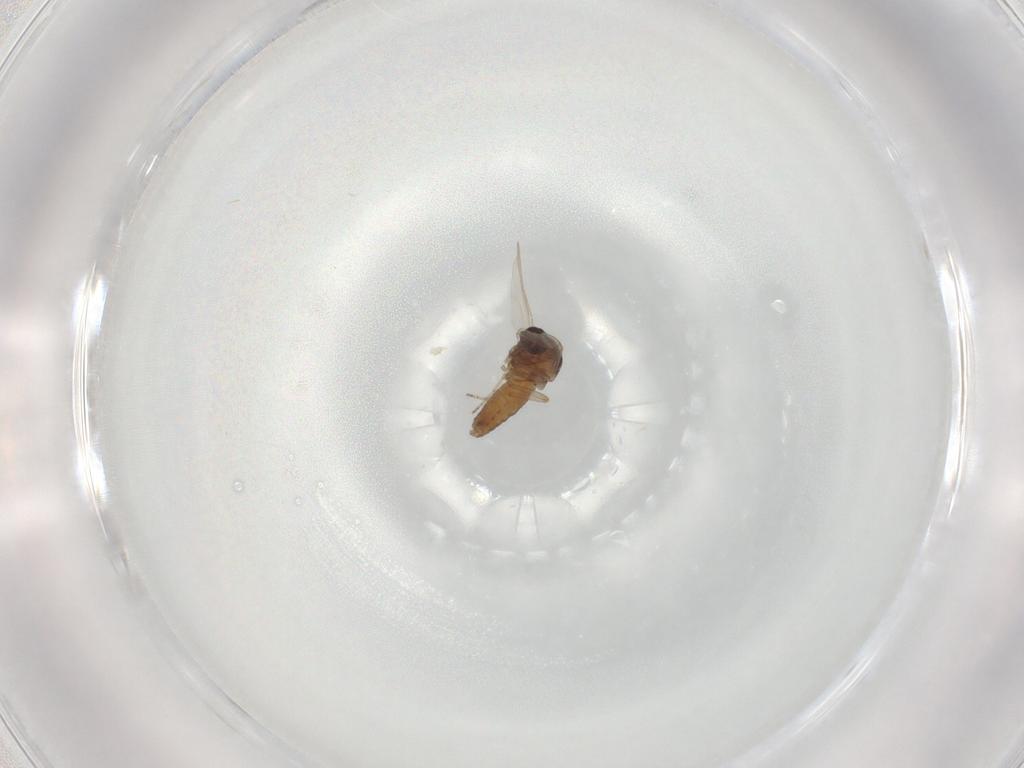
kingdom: Animalia
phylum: Arthropoda
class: Insecta
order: Diptera
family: Ceratopogonidae
